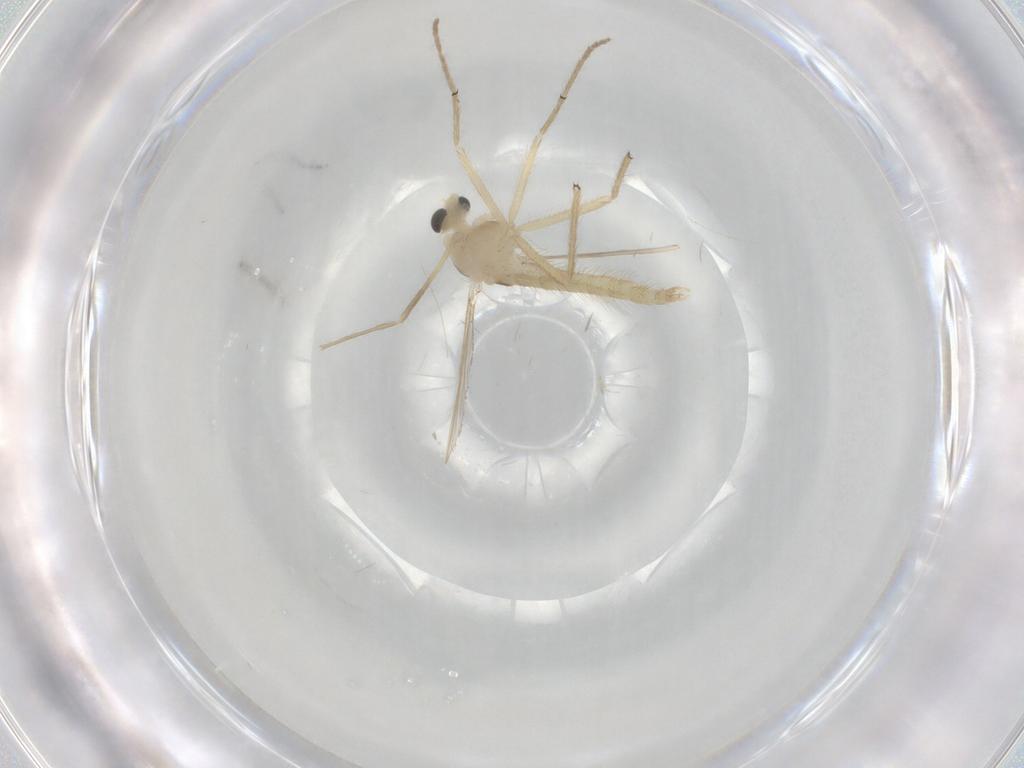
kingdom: Animalia
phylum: Arthropoda
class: Insecta
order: Diptera
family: Chironomidae
